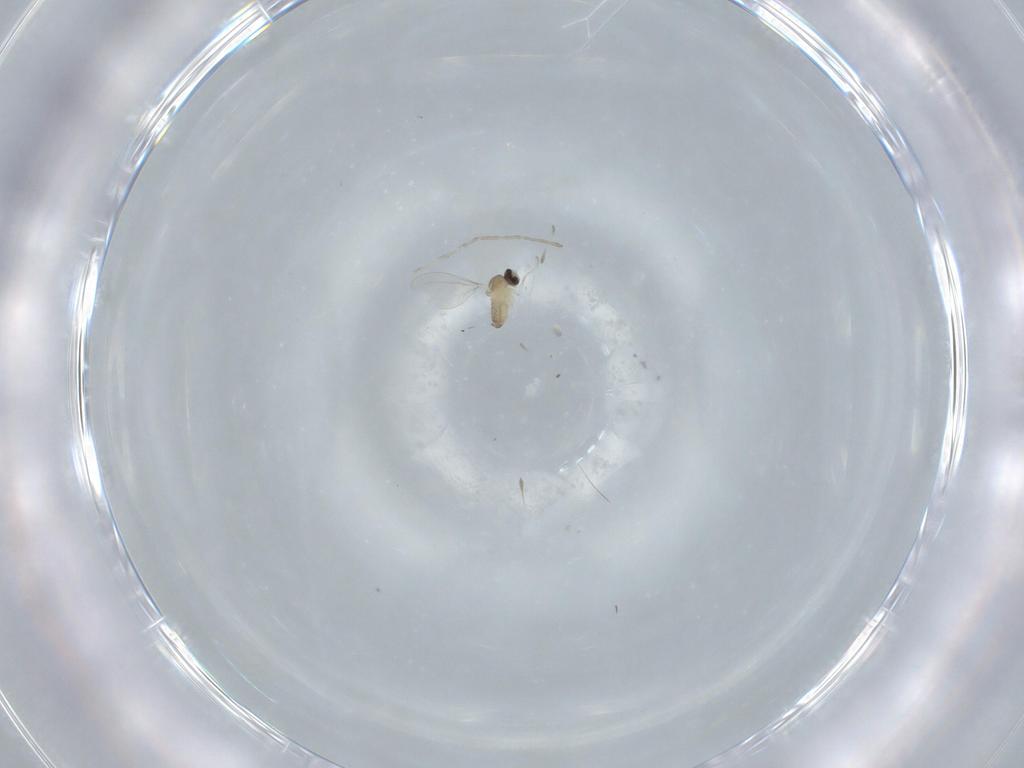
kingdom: Animalia
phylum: Arthropoda
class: Insecta
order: Diptera
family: Cecidomyiidae
